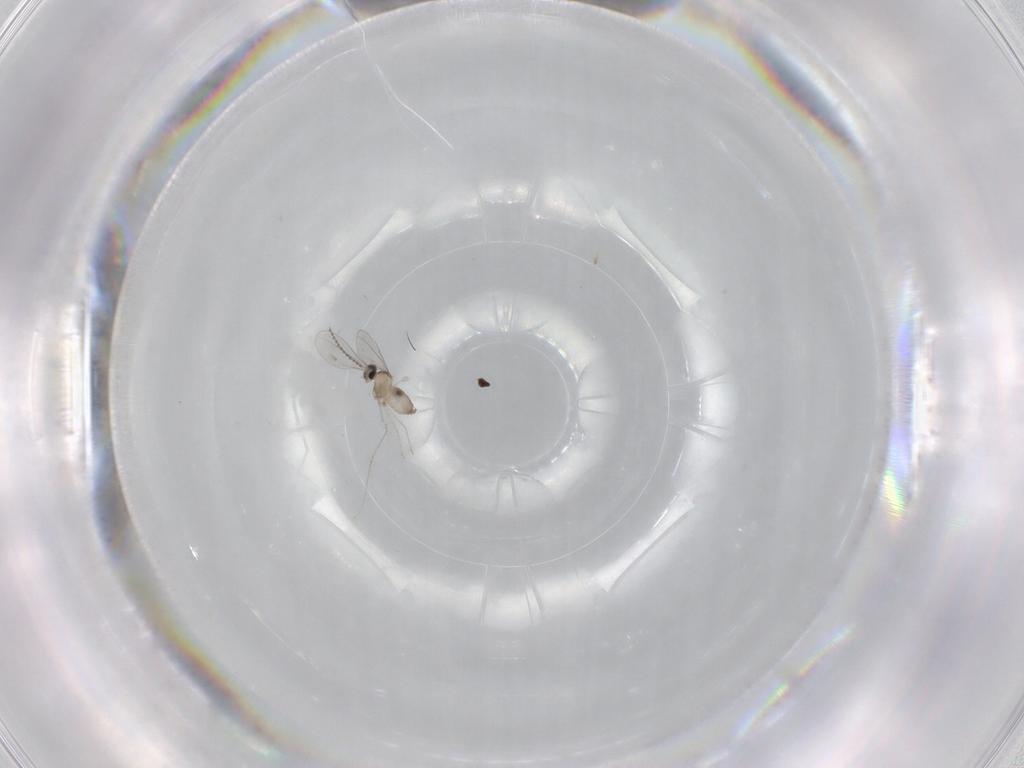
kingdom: Animalia
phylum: Arthropoda
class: Insecta
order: Diptera
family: Cecidomyiidae
